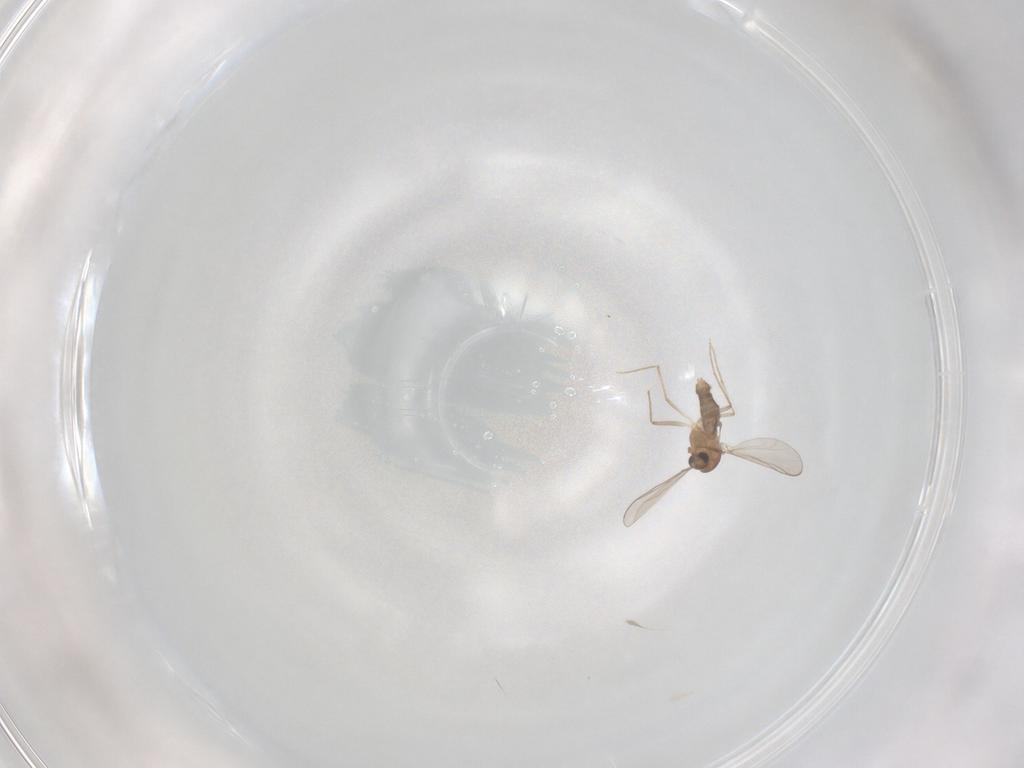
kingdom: Animalia
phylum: Arthropoda
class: Insecta
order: Diptera
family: Chironomidae
